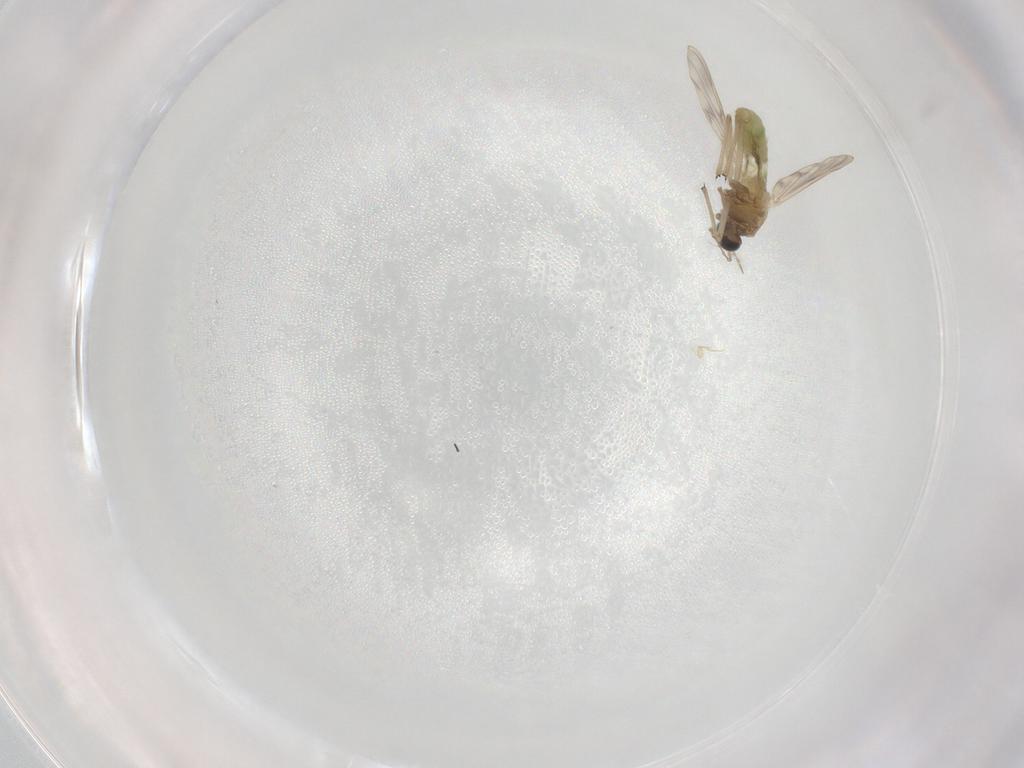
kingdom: Animalia
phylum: Arthropoda
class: Insecta
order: Diptera
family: Chironomidae
